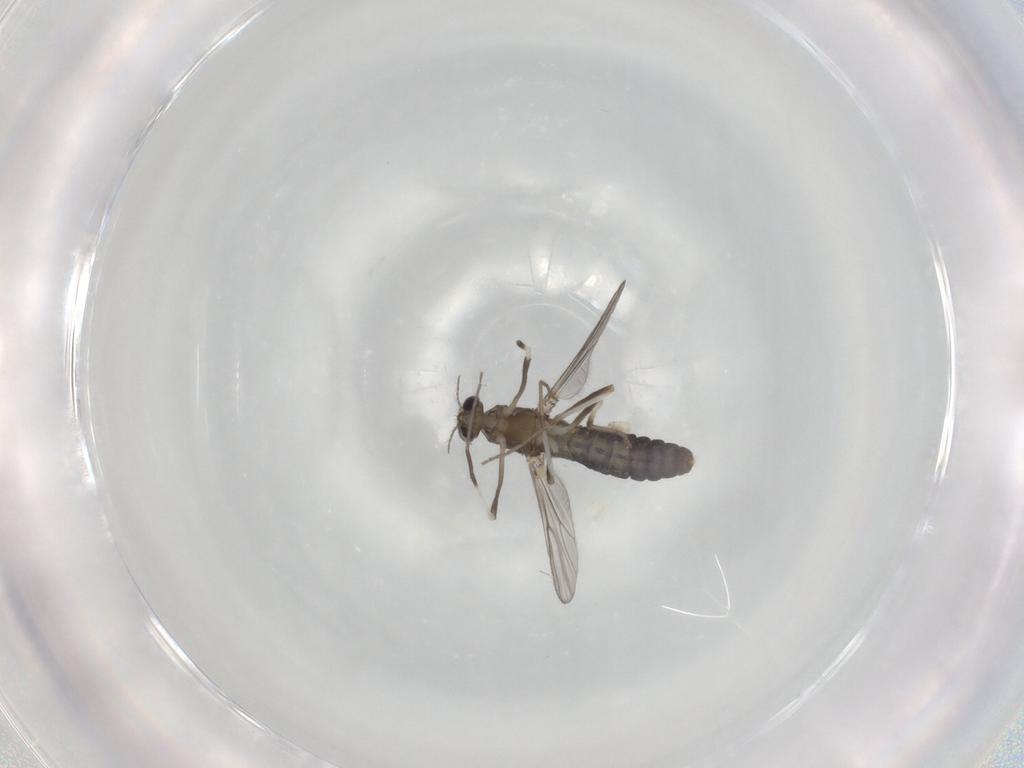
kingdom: Animalia
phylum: Arthropoda
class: Insecta
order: Diptera
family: Chironomidae
